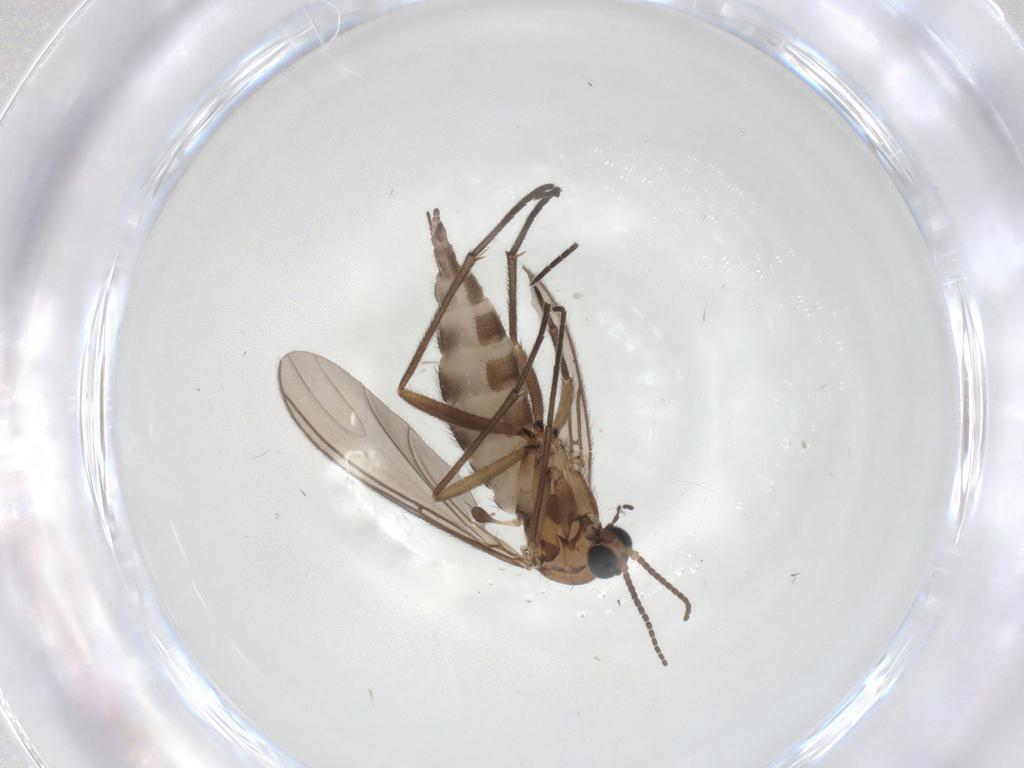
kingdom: Animalia
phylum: Arthropoda
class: Insecta
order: Diptera
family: Sciaridae
